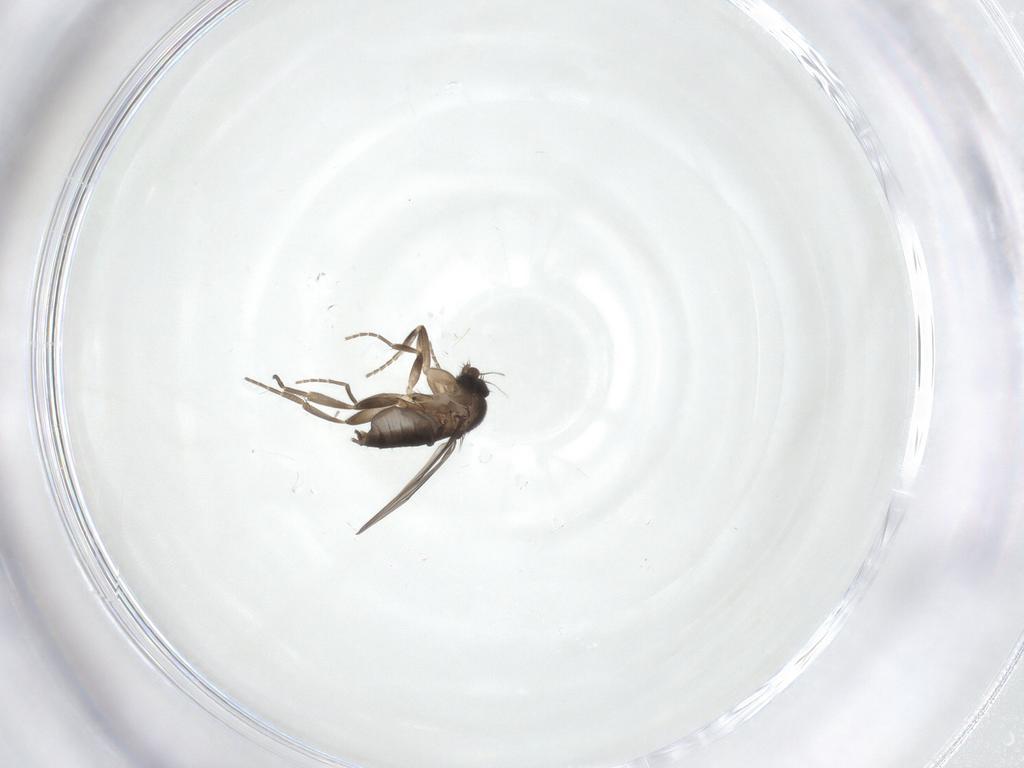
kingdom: Animalia
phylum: Arthropoda
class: Insecta
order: Diptera
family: Phoridae
